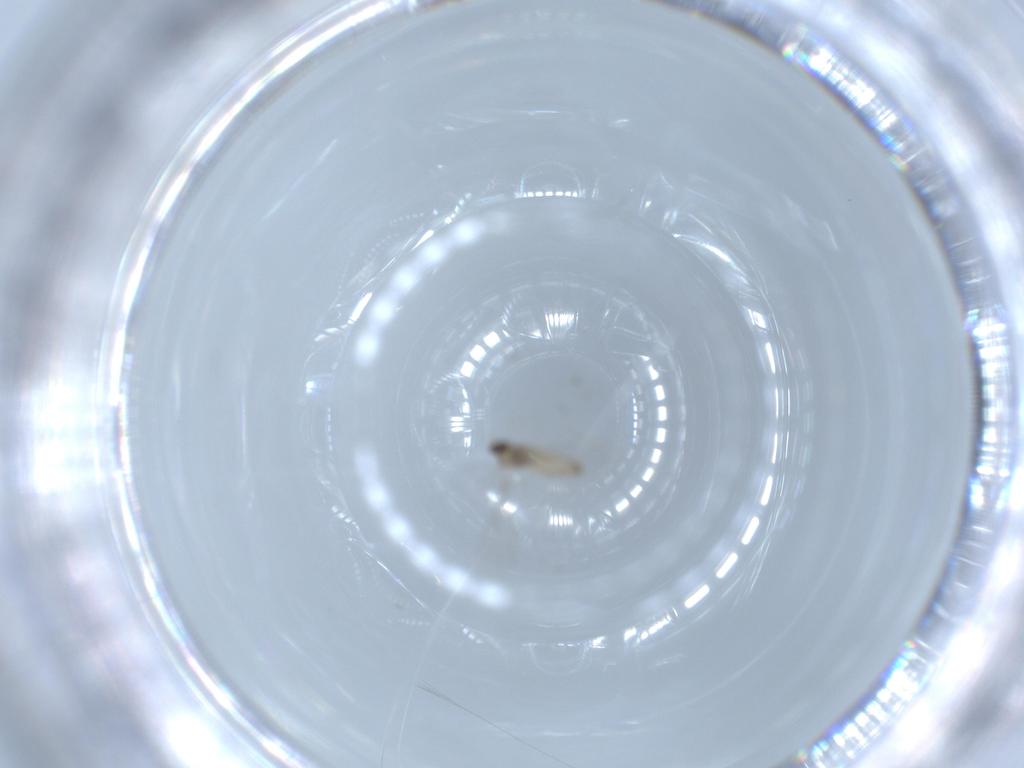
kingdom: Animalia
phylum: Arthropoda
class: Insecta
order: Diptera
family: Cecidomyiidae
